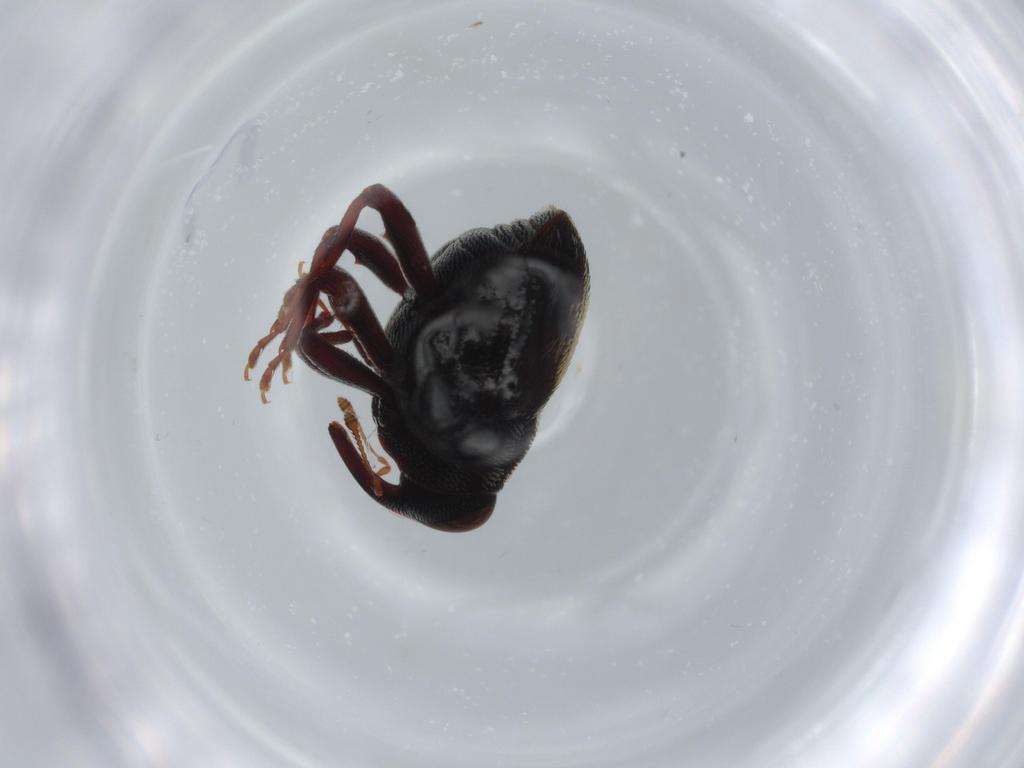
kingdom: Animalia
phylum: Arthropoda
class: Insecta
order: Coleoptera
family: Curculionidae
